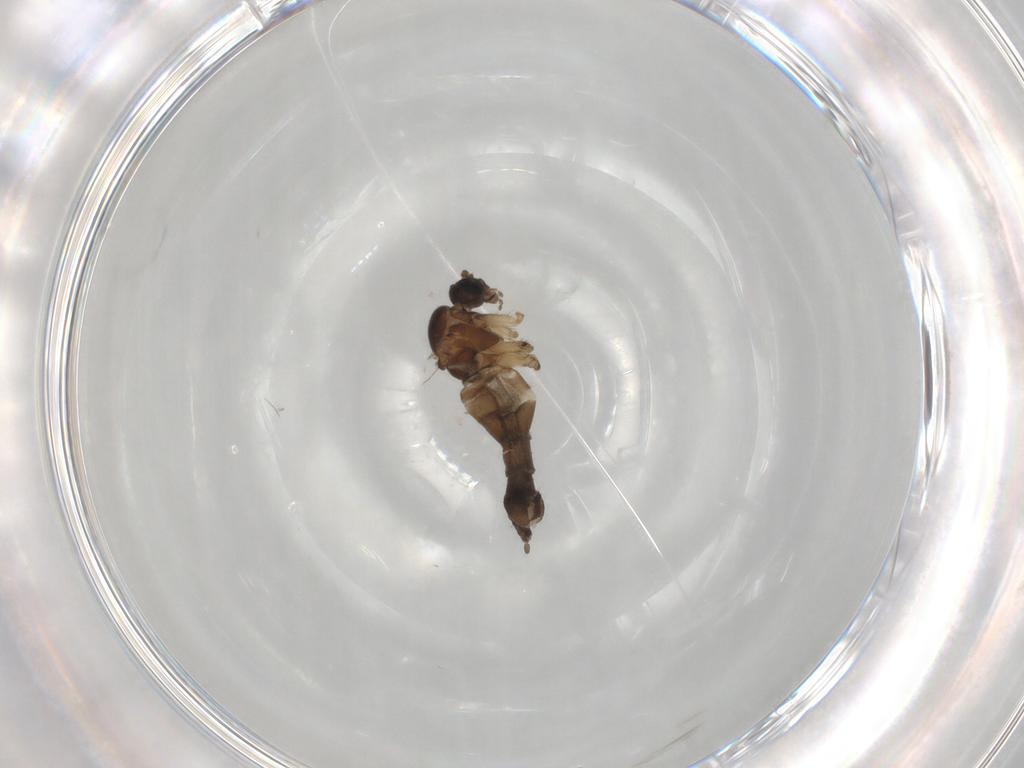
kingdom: Animalia
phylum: Arthropoda
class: Insecta
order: Diptera
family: Sciaridae
